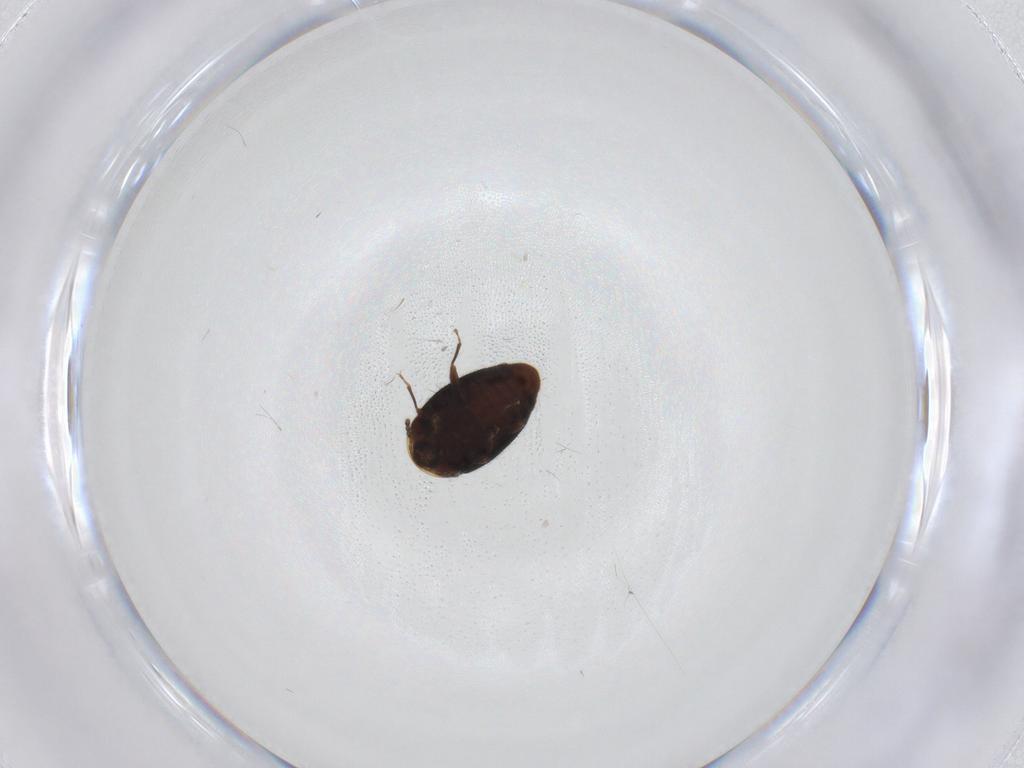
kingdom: Animalia
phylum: Arthropoda
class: Insecta
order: Coleoptera
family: Corylophidae
